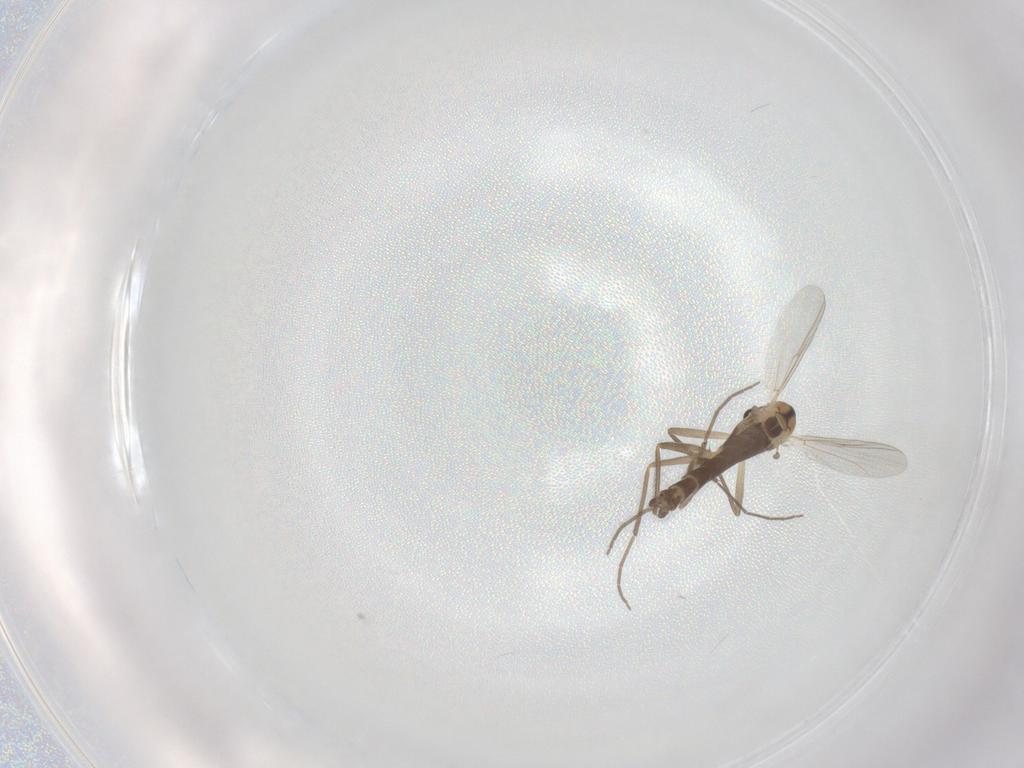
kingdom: Animalia
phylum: Arthropoda
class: Insecta
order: Diptera
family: Chironomidae
